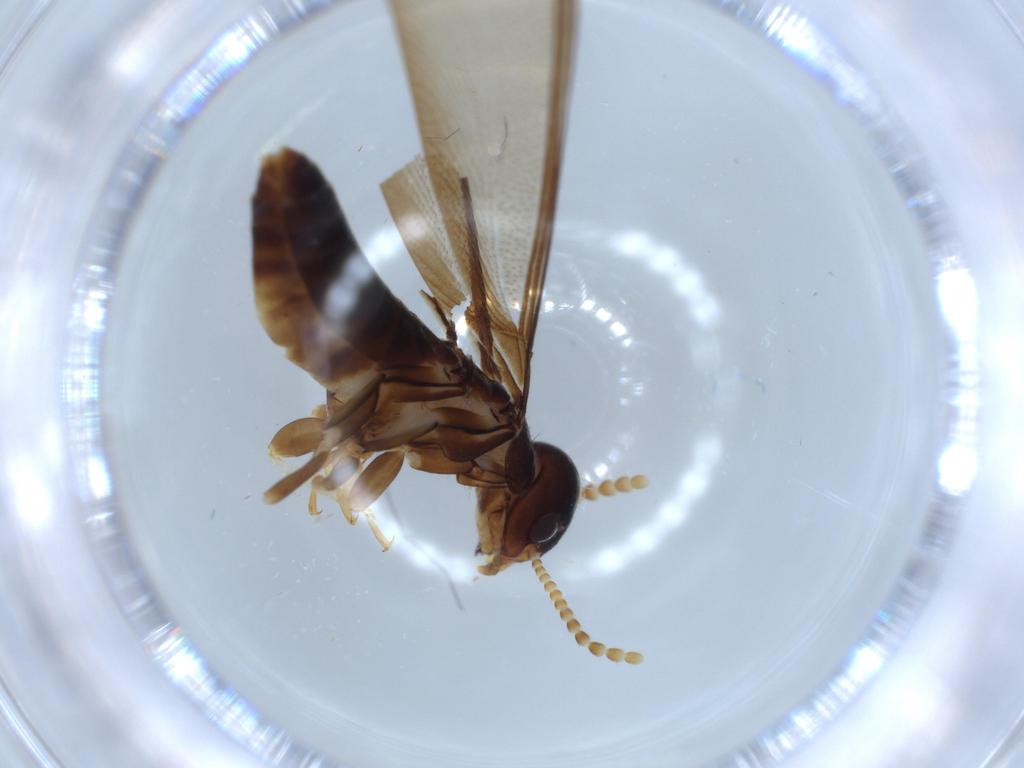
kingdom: Animalia
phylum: Arthropoda
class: Insecta
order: Blattodea
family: Kalotermitidae
